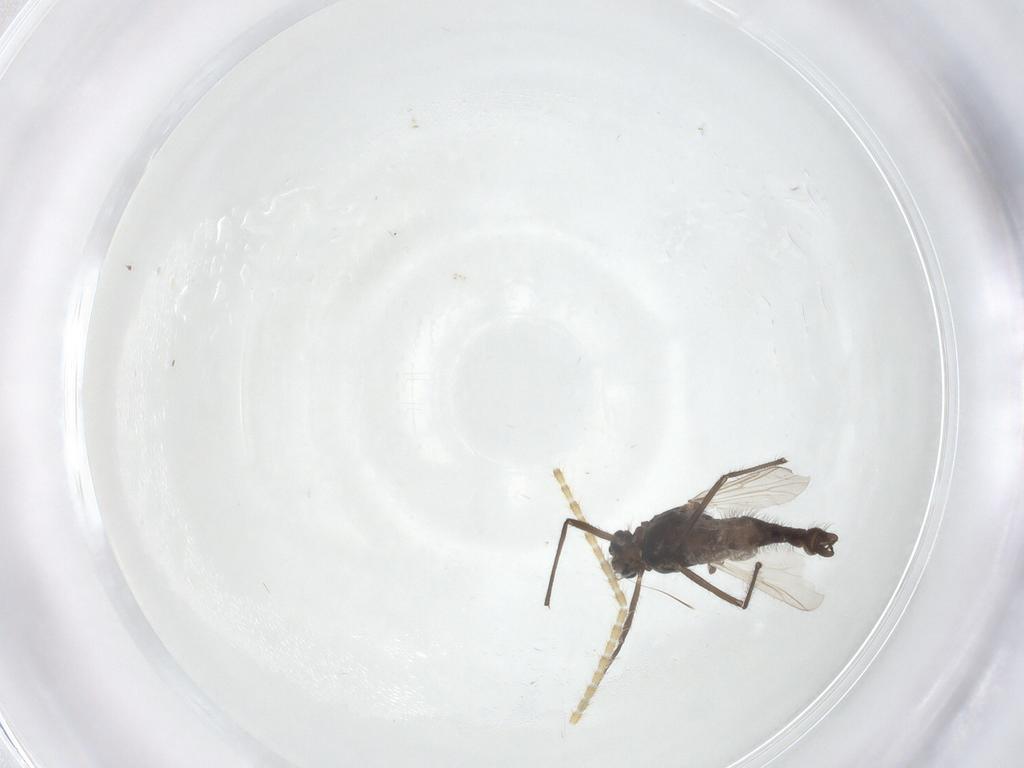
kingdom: Animalia
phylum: Arthropoda
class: Insecta
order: Diptera
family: Chironomidae
